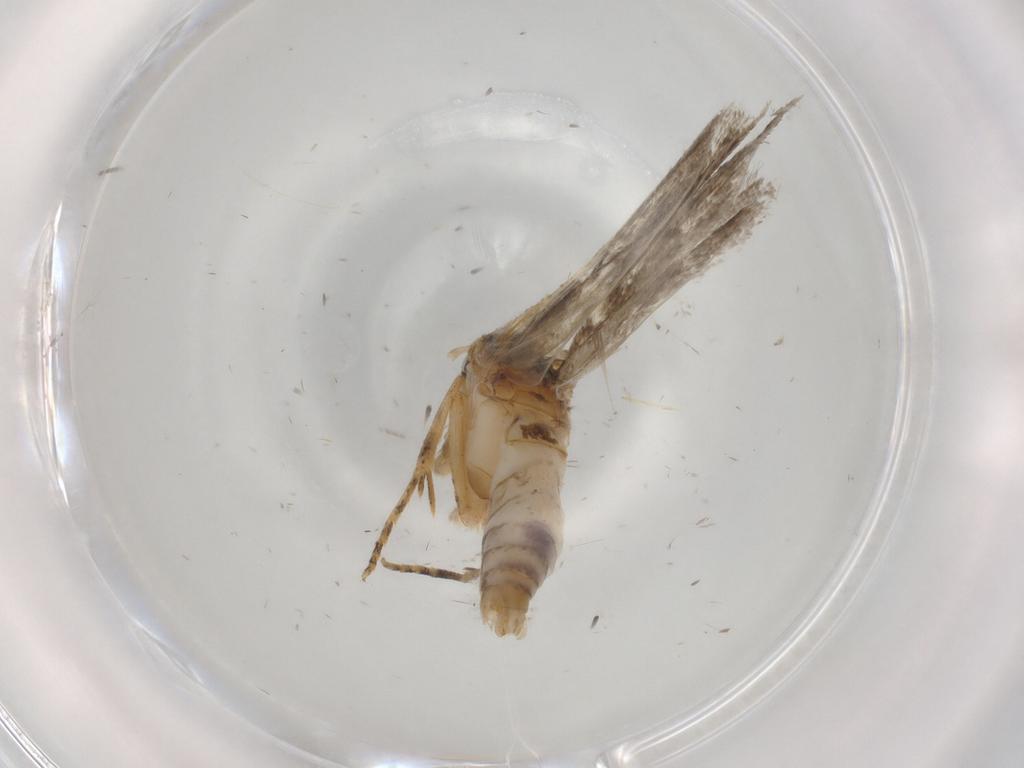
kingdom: Animalia
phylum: Arthropoda
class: Insecta
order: Lepidoptera
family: Gelechiidae
